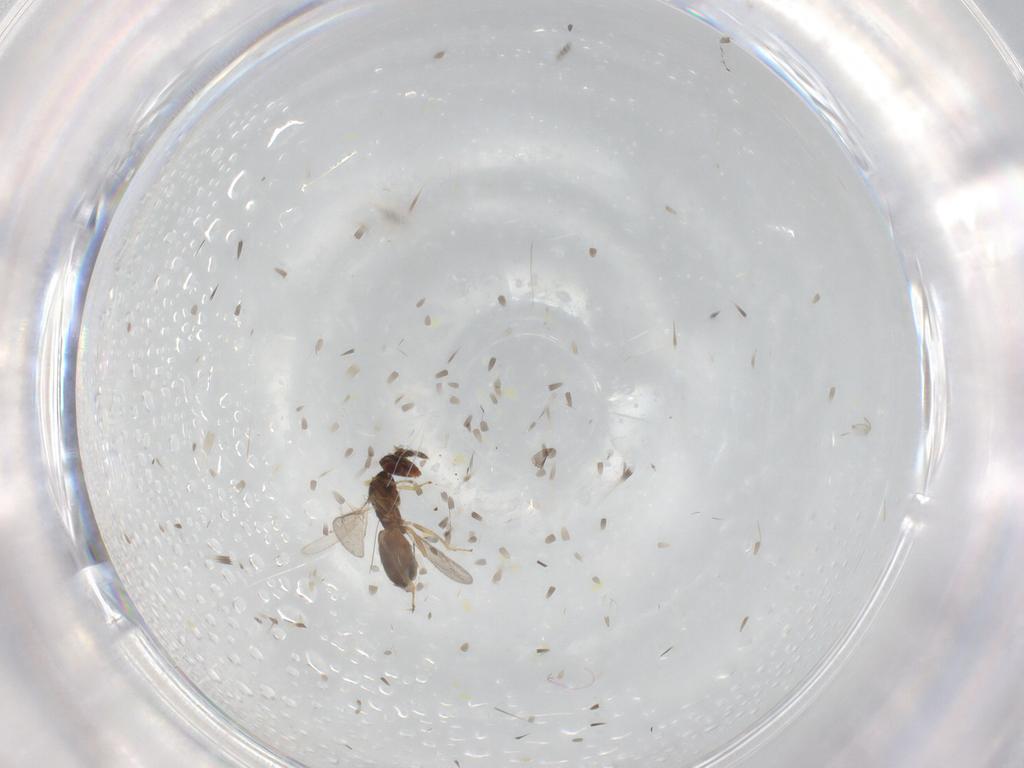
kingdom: Animalia
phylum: Arthropoda
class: Insecta
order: Hymenoptera
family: Eulophidae
